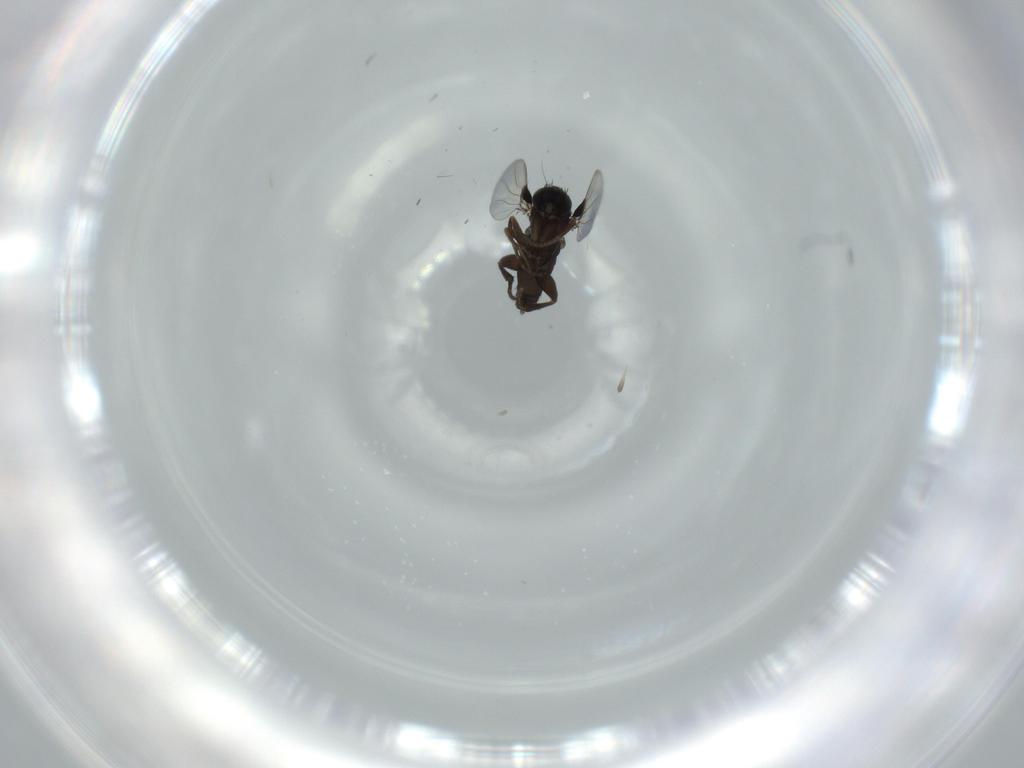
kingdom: Animalia
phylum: Arthropoda
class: Insecta
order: Diptera
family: Phoridae
